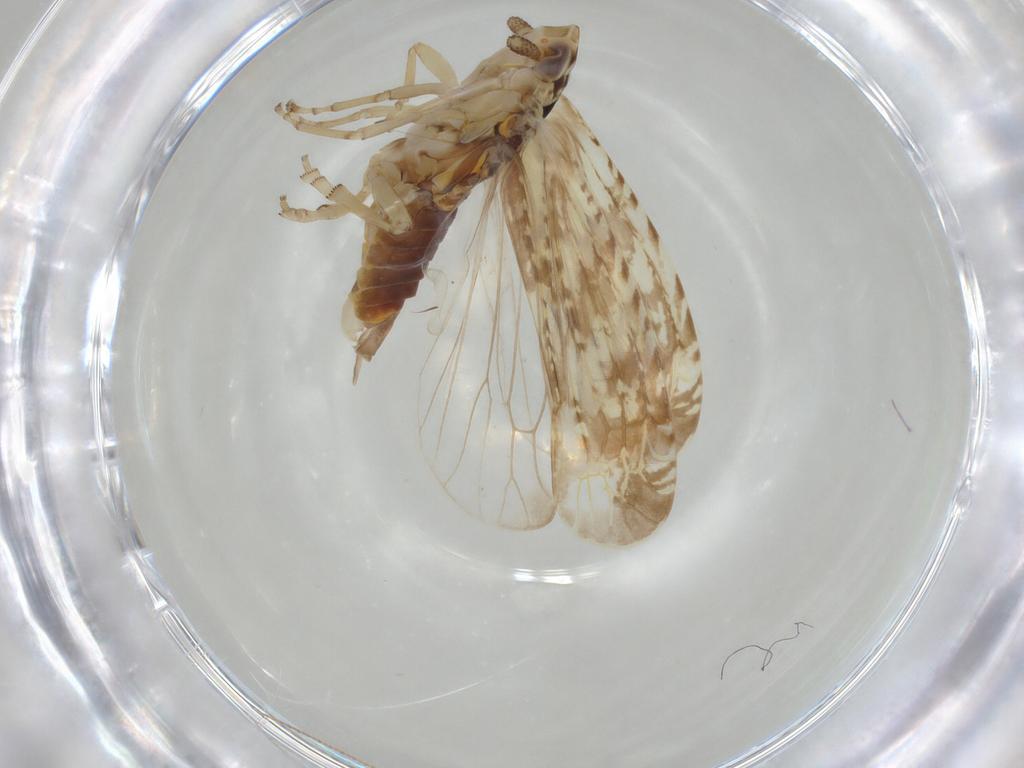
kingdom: Animalia
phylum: Arthropoda
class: Insecta
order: Hemiptera
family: Achilidae
